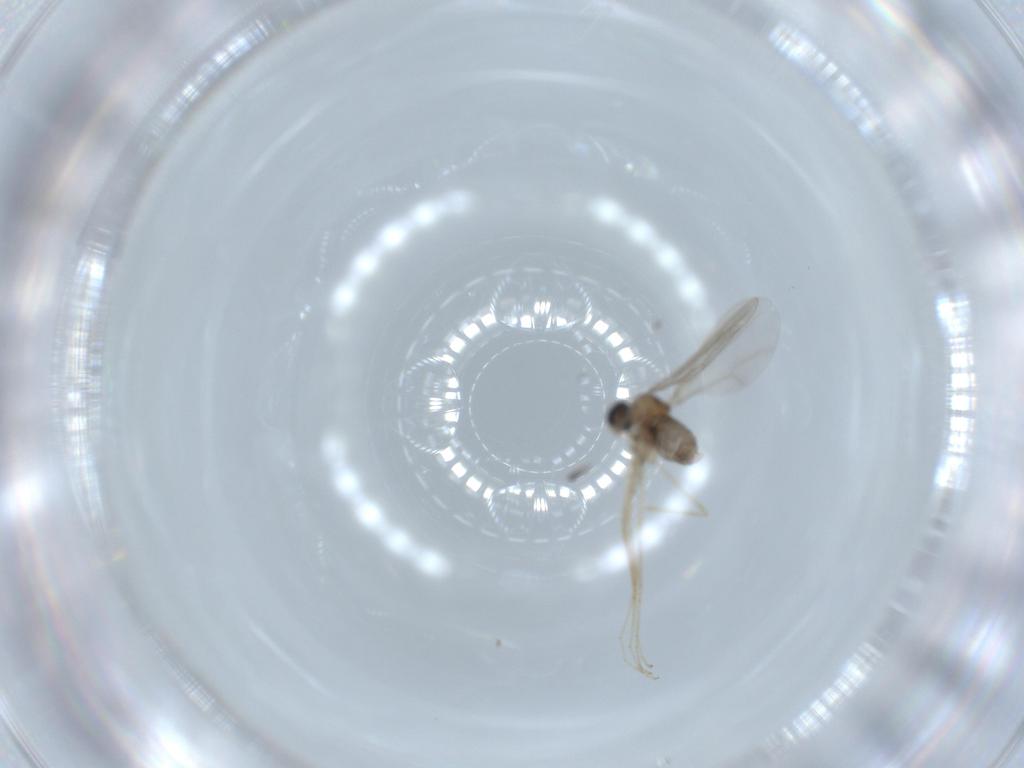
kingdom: Animalia
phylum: Arthropoda
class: Insecta
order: Diptera
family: Cecidomyiidae
